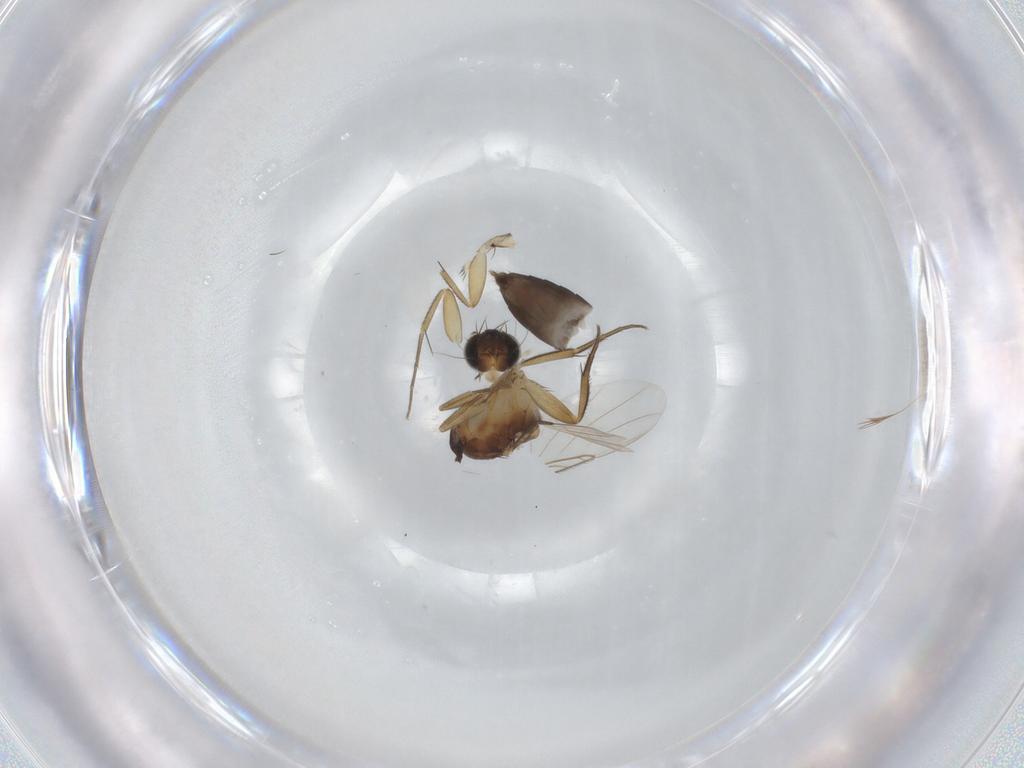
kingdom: Animalia
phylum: Arthropoda
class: Insecta
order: Diptera
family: Phoridae
